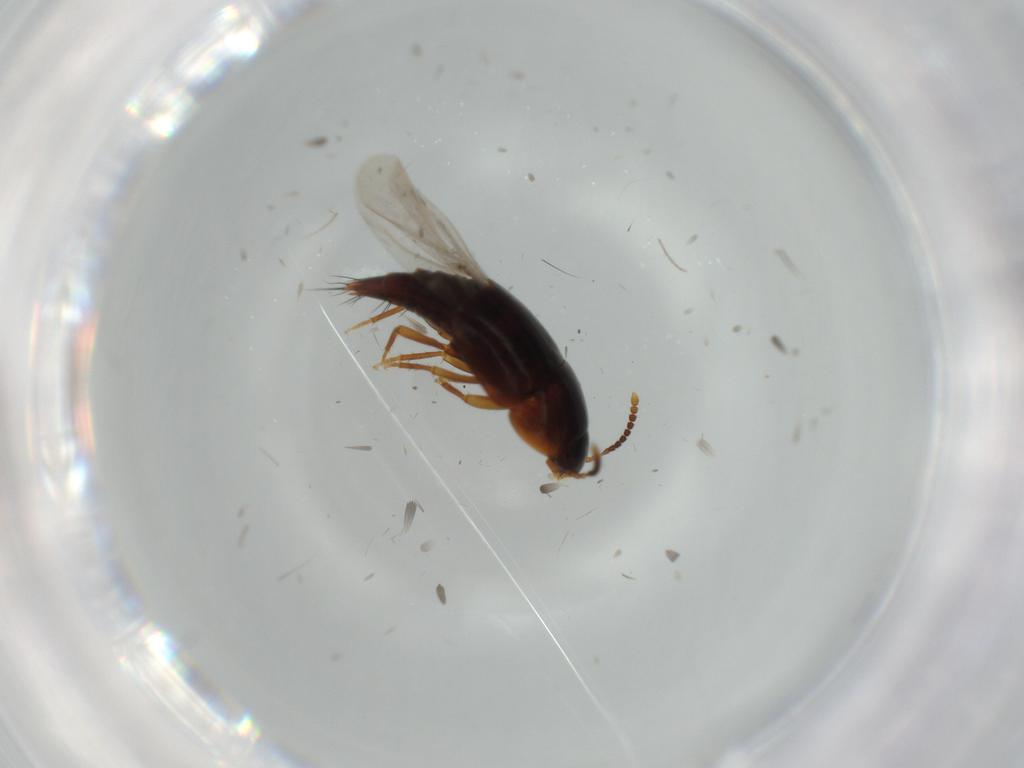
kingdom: Animalia
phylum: Arthropoda
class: Insecta
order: Coleoptera
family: Staphylinidae
